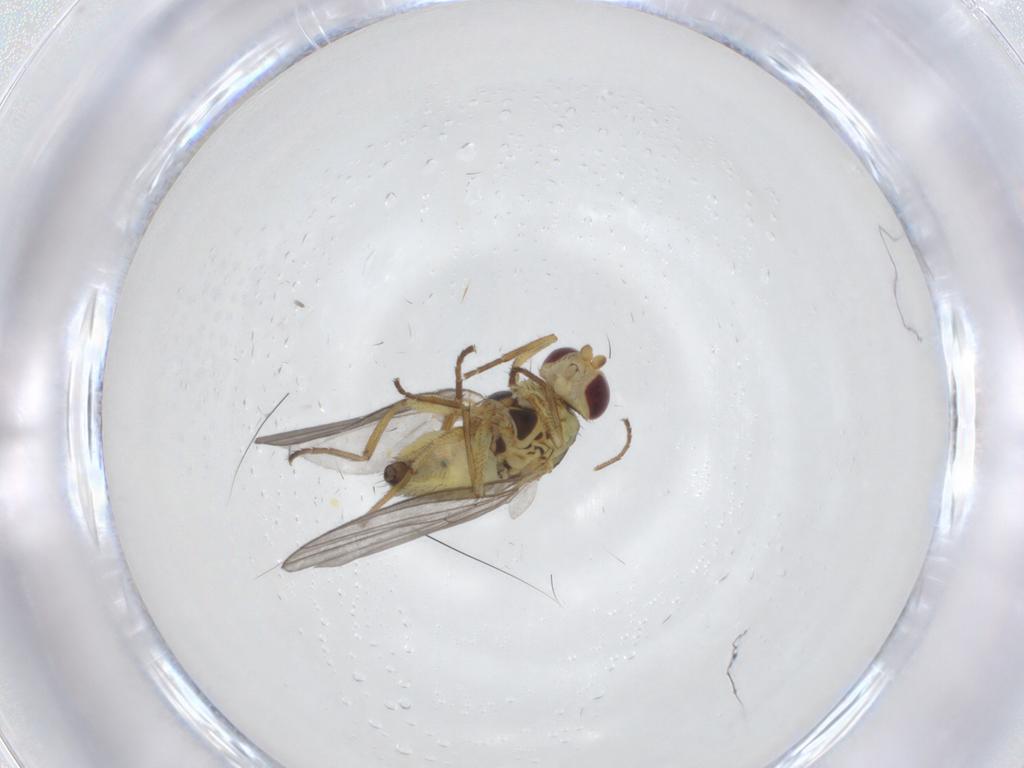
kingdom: Animalia
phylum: Arthropoda
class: Insecta
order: Diptera
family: Agromyzidae
